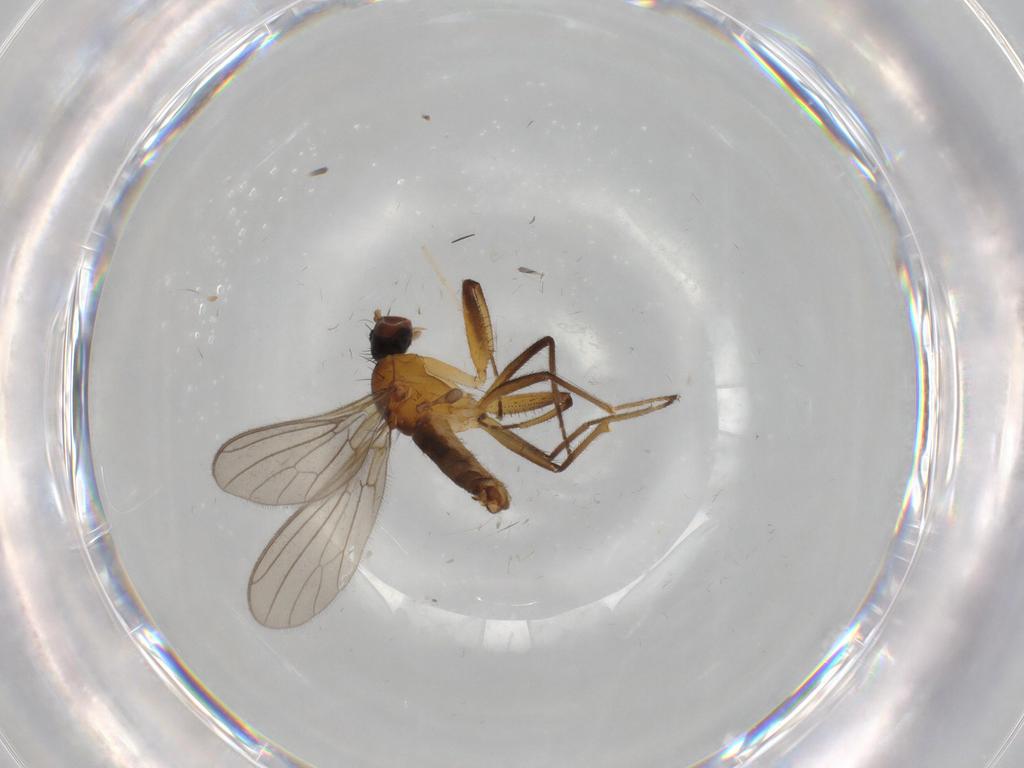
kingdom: Animalia
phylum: Arthropoda
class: Insecta
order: Diptera
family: Empididae
